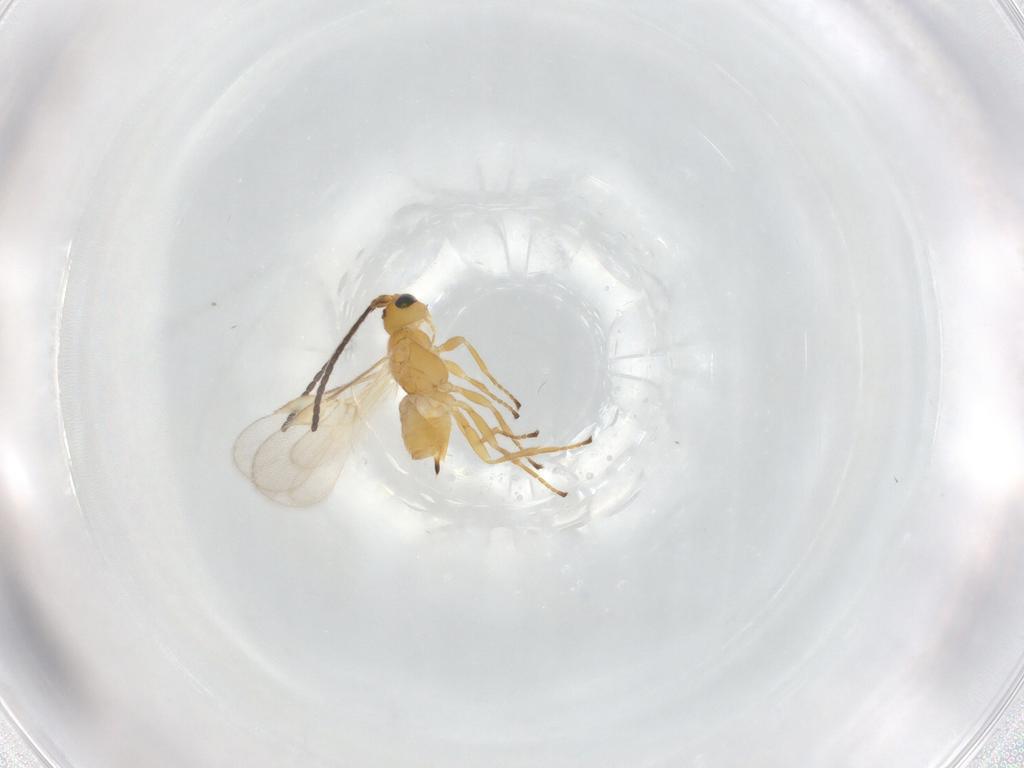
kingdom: Animalia
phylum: Arthropoda
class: Insecta
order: Hymenoptera
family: Braconidae
